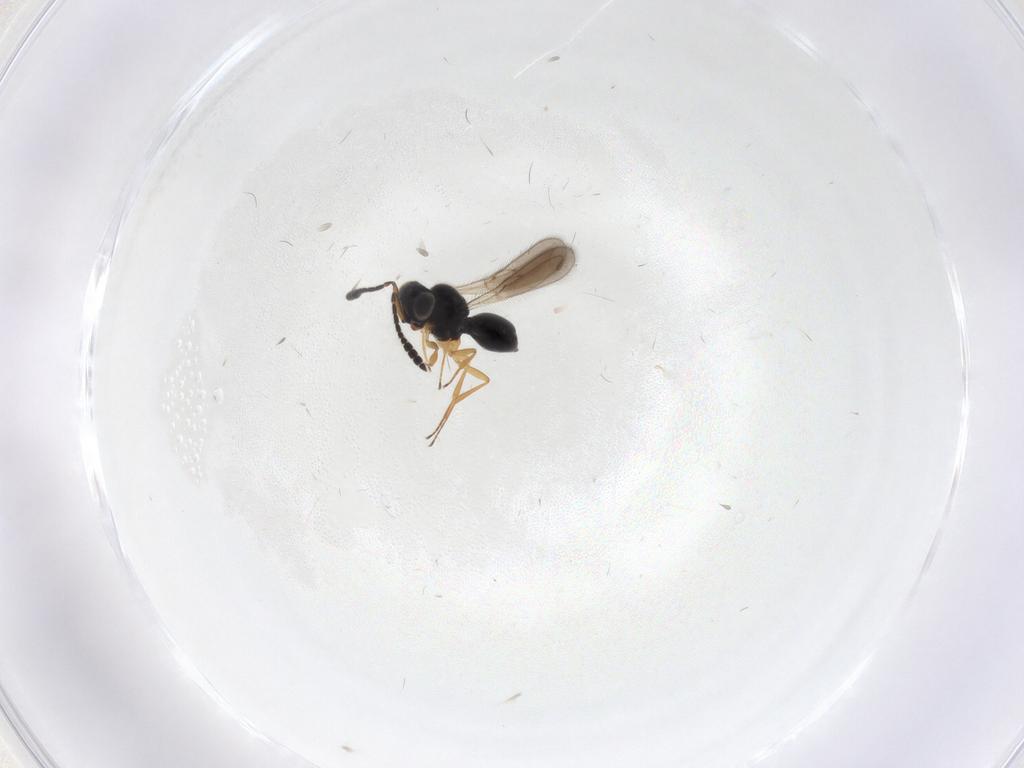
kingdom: Animalia
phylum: Arthropoda
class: Insecta
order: Hymenoptera
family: Scelionidae
